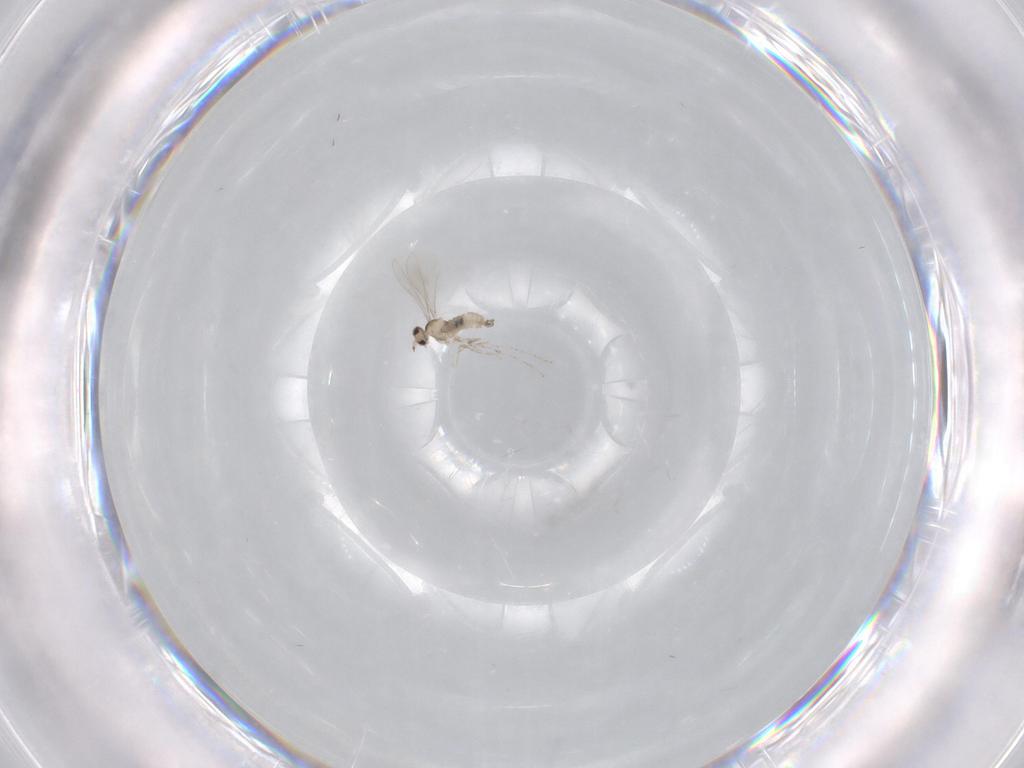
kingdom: Animalia
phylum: Arthropoda
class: Insecta
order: Diptera
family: Cecidomyiidae
